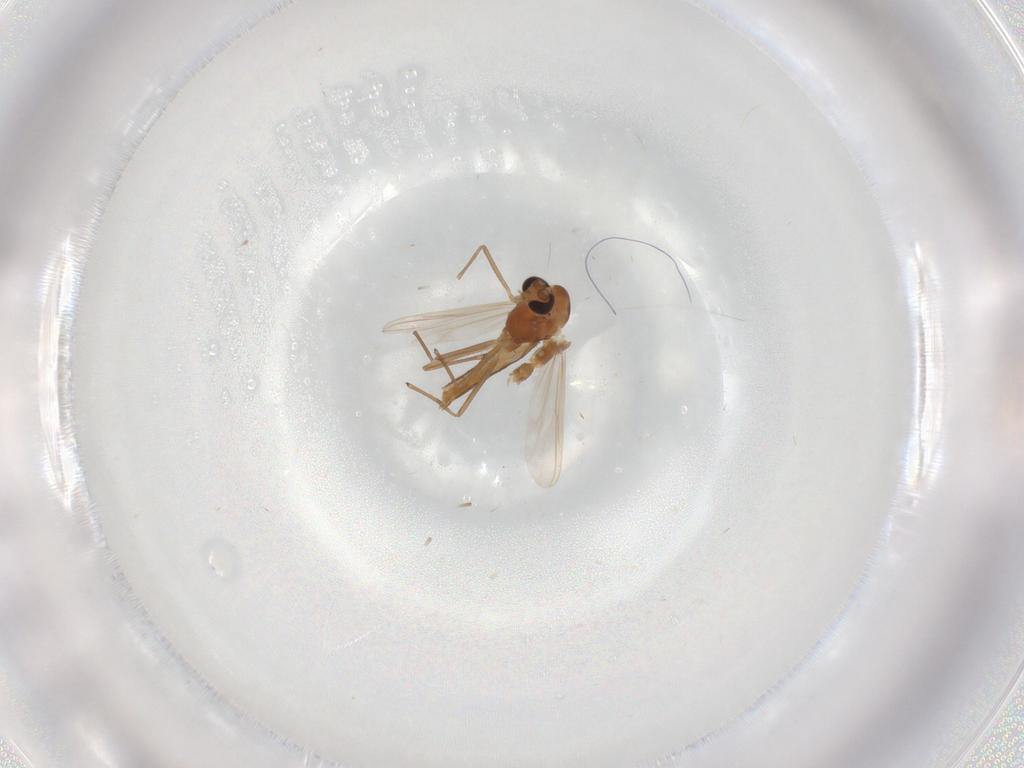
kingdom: Animalia
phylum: Arthropoda
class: Insecta
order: Diptera
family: Chironomidae
